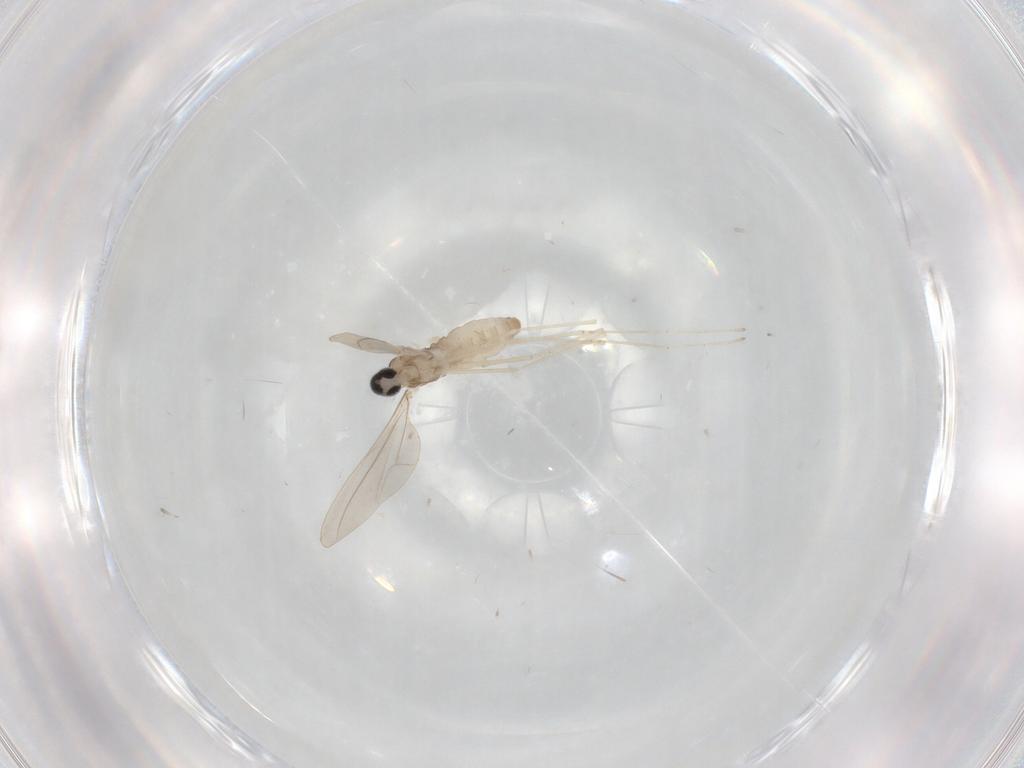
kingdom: Animalia
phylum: Arthropoda
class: Insecta
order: Diptera
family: Cecidomyiidae
